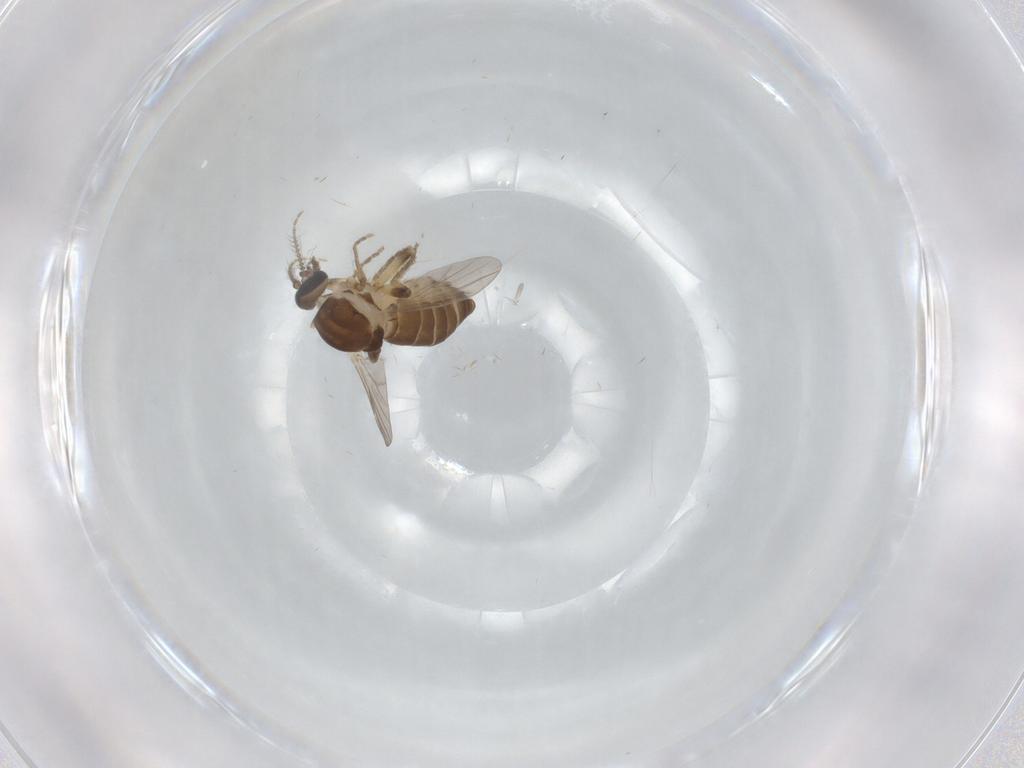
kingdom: Animalia
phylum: Arthropoda
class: Insecta
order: Diptera
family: Ceratopogonidae
